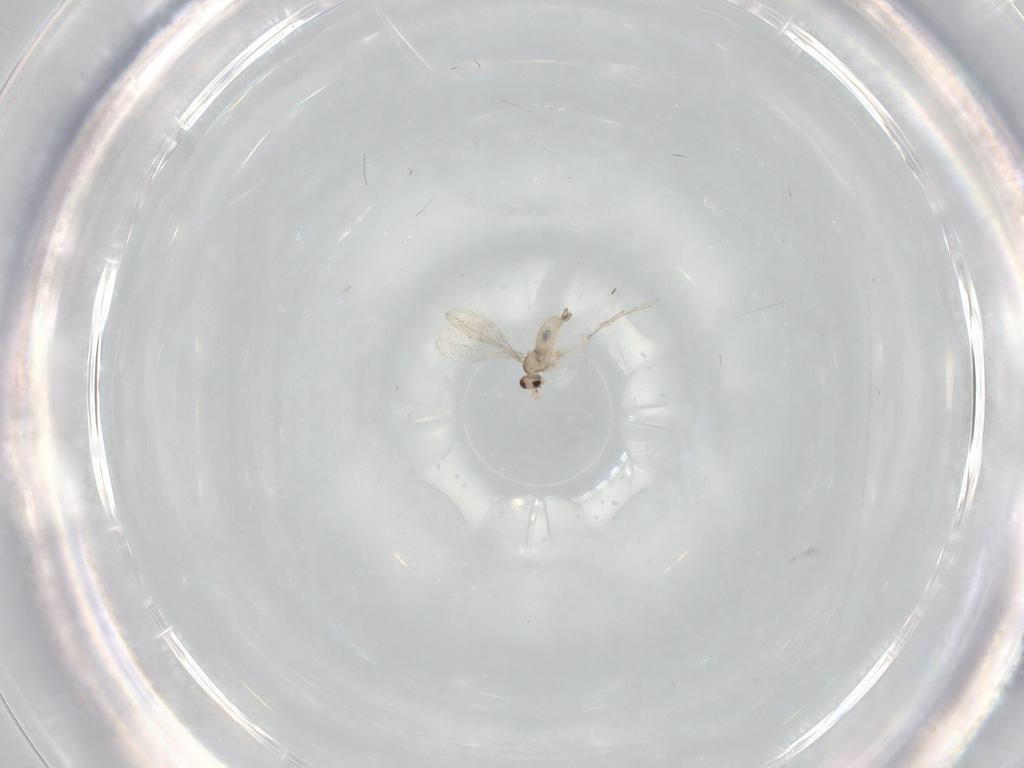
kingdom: Animalia
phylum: Arthropoda
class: Insecta
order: Diptera
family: Cecidomyiidae
